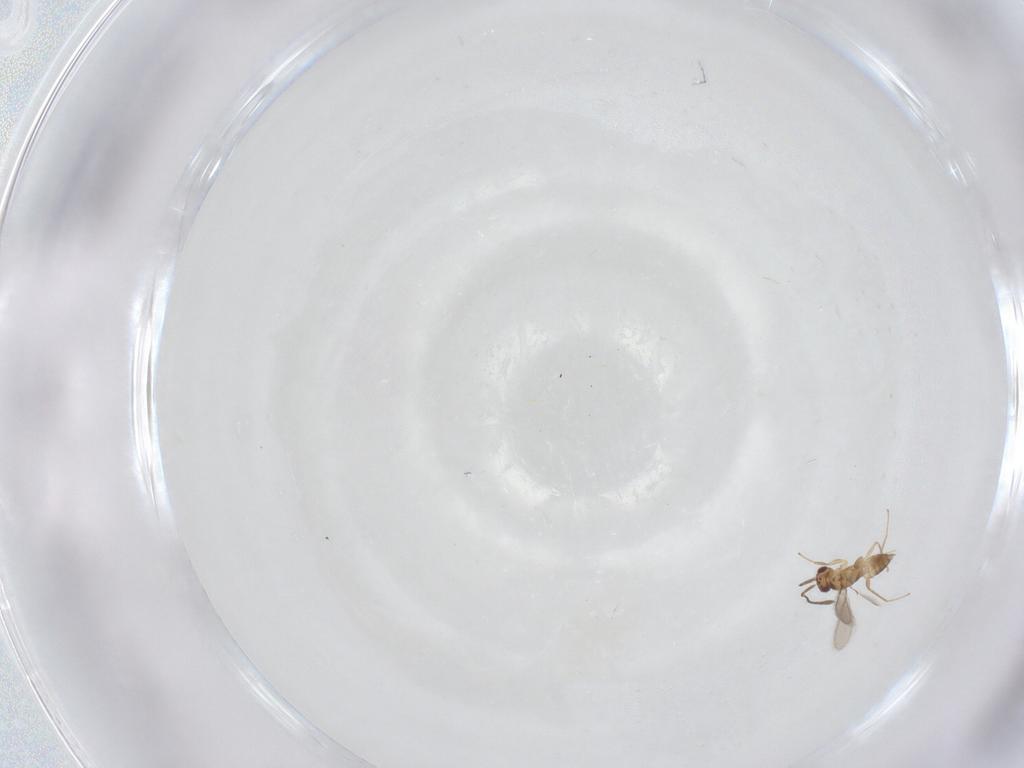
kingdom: Animalia
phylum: Arthropoda
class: Insecta
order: Hymenoptera
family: Mymaridae
